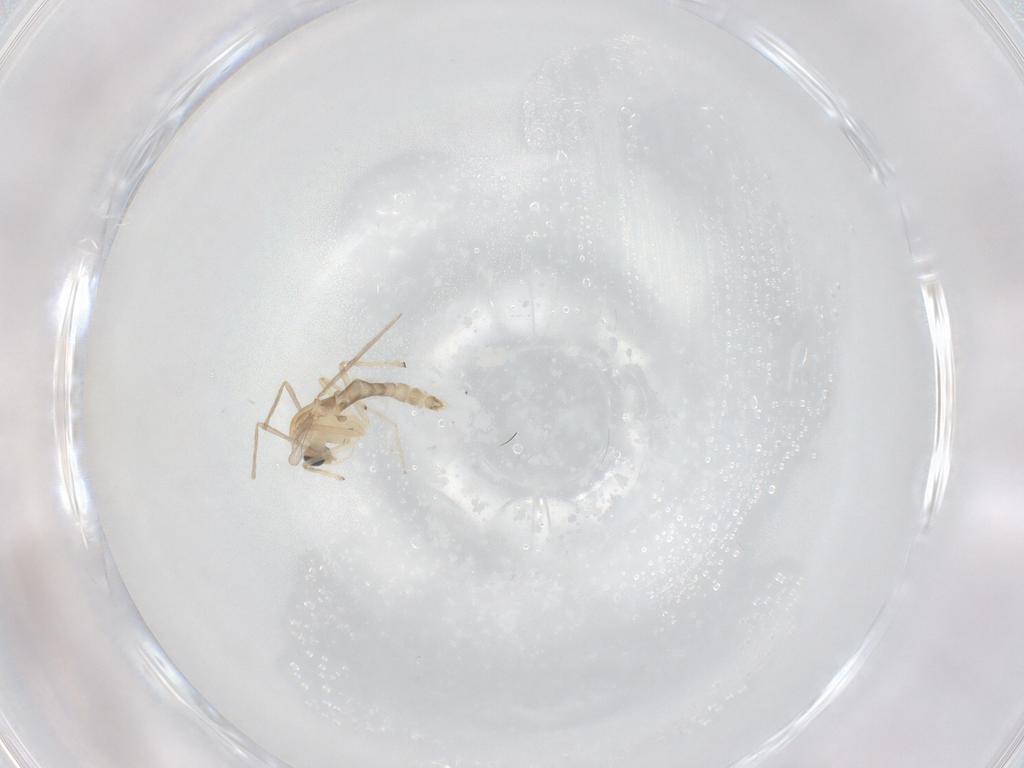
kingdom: Animalia
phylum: Arthropoda
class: Insecta
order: Diptera
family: Chironomidae
